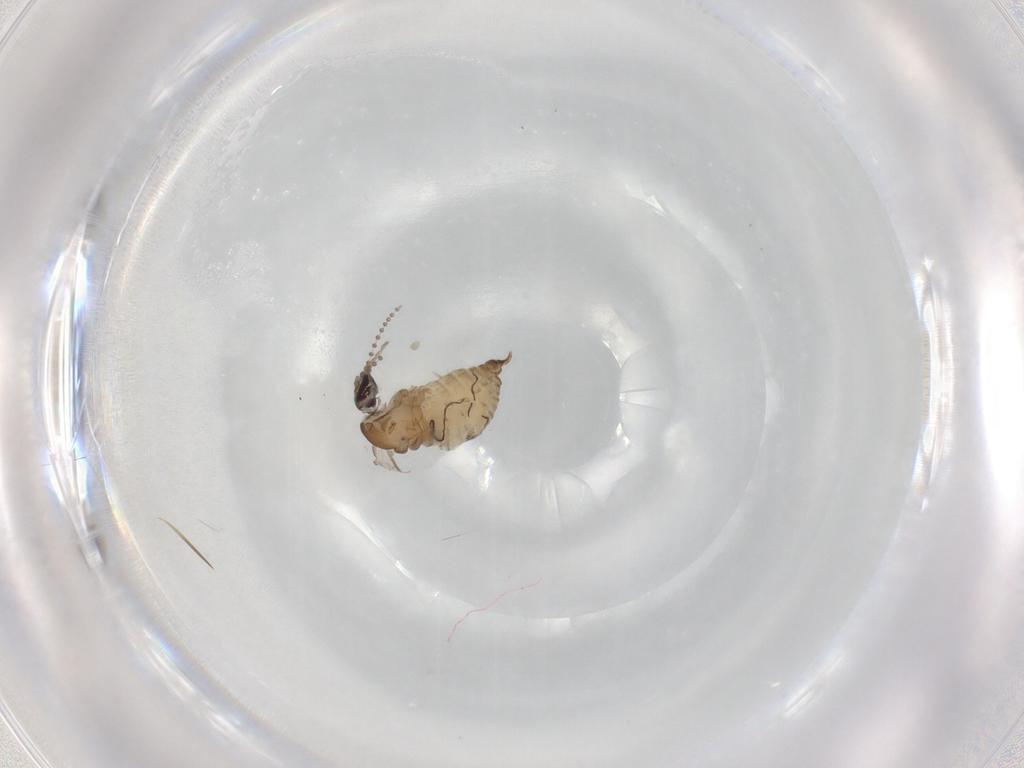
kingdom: Animalia
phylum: Arthropoda
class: Insecta
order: Diptera
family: Psychodidae
